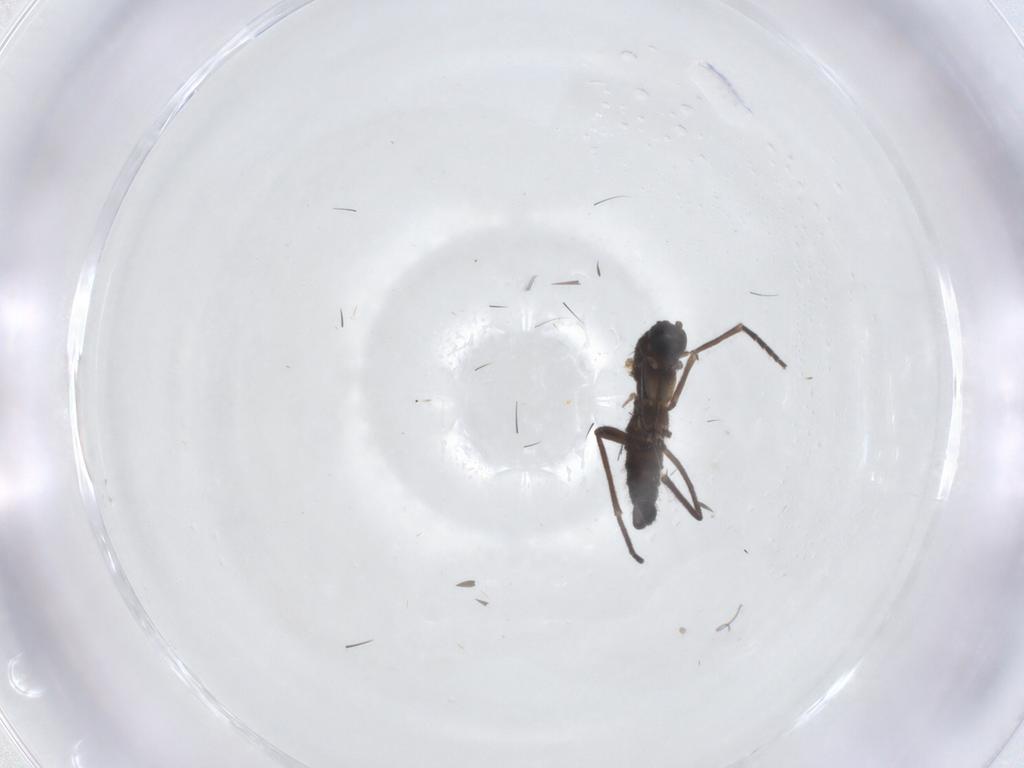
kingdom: Animalia
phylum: Arthropoda
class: Insecta
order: Diptera
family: Sciaridae
